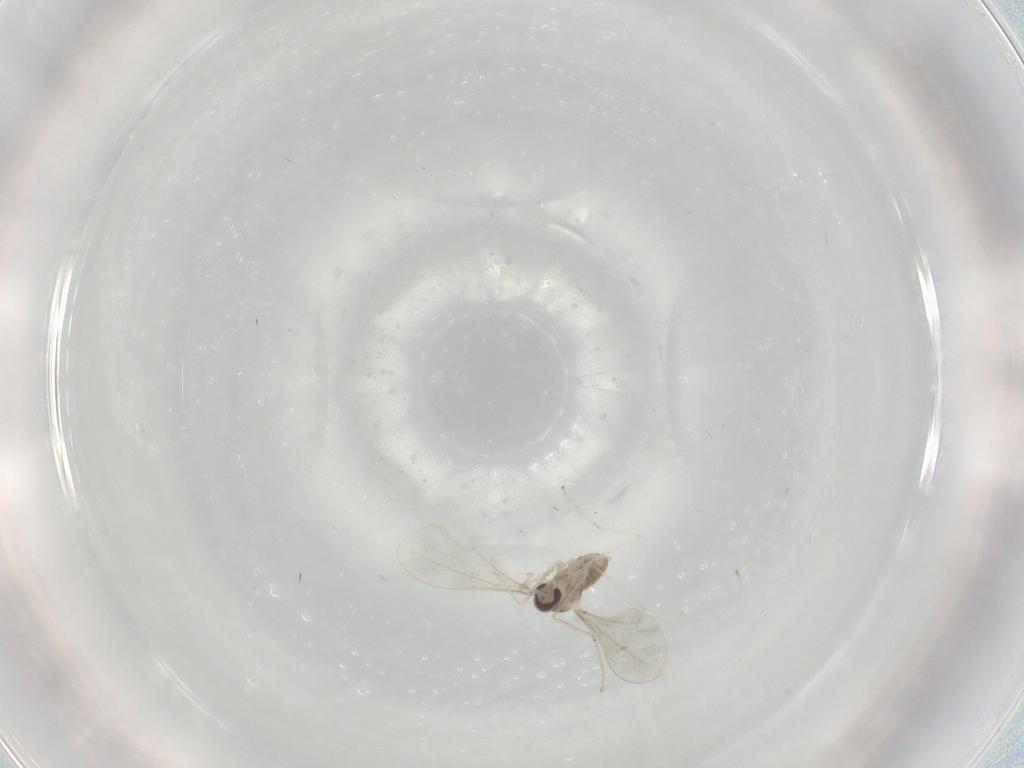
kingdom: Animalia
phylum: Arthropoda
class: Insecta
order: Diptera
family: Cecidomyiidae
